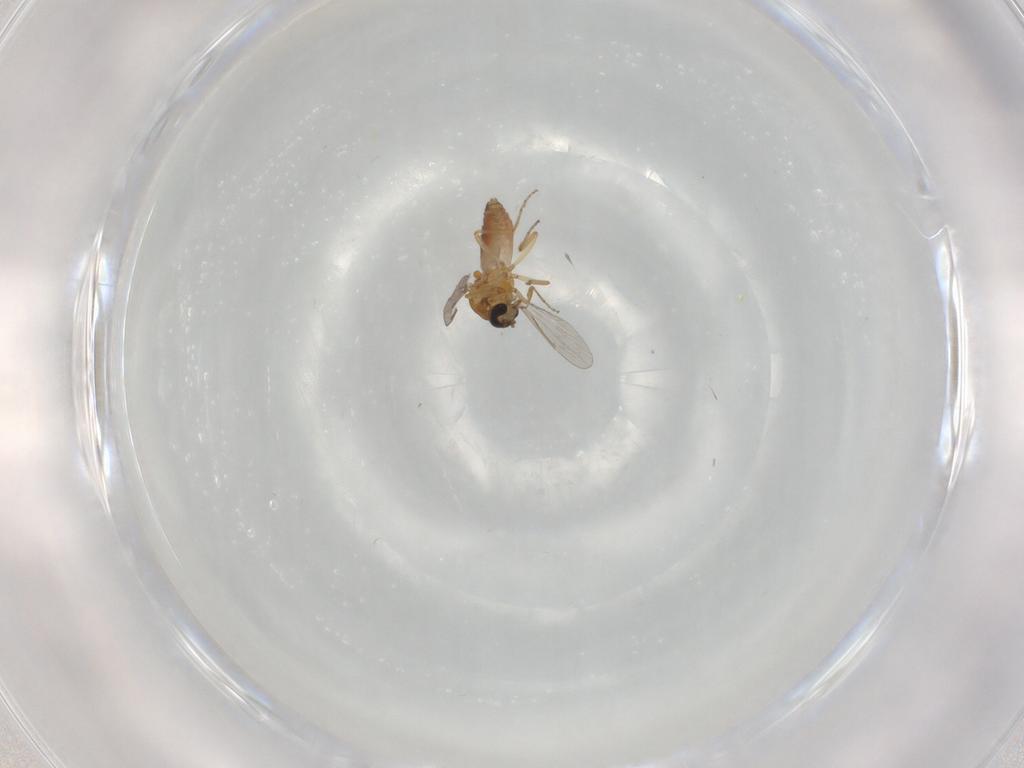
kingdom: Animalia
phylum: Arthropoda
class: Insecta
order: Diptera
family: Ceratopogonidae
